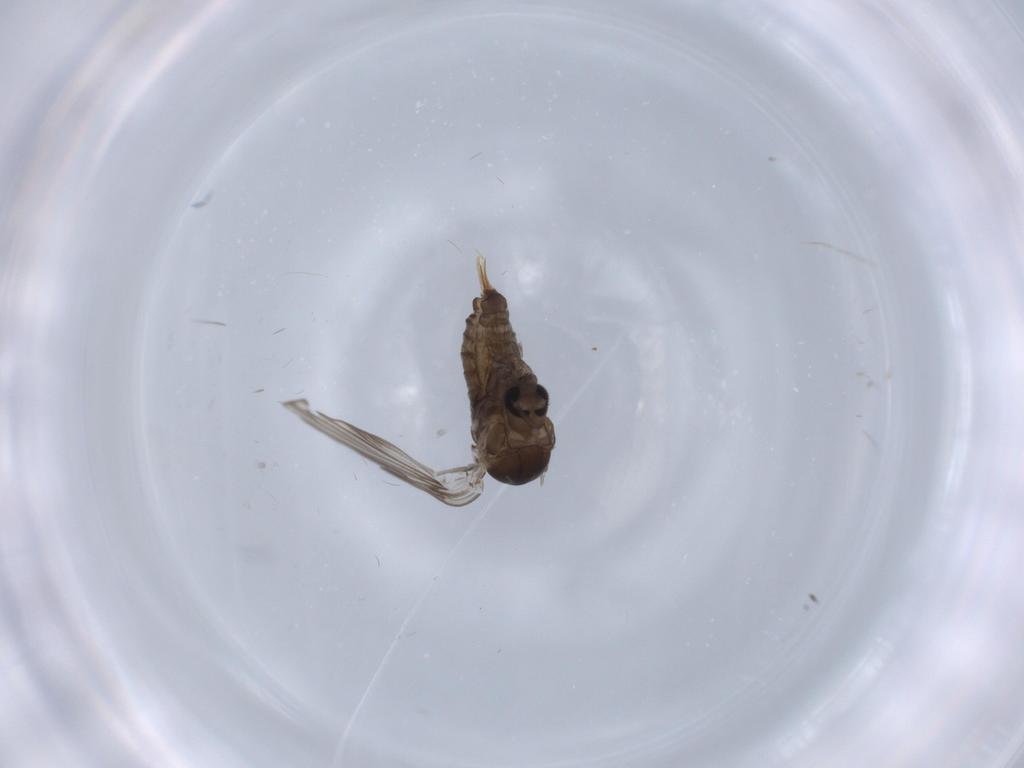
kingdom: Animalia
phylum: Arthropoda
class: Insecta
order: Diptera
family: Psychodidae
